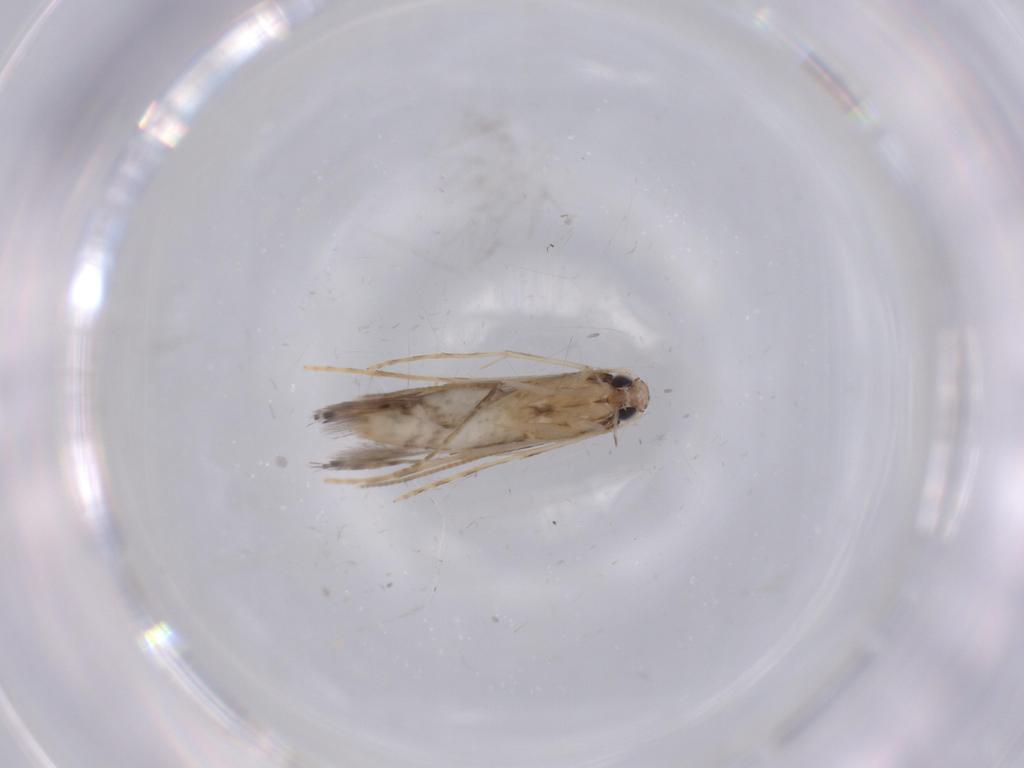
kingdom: Animalia
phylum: Arthropoda
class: Insecta
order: Lepidoptera
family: Gracillariidae
